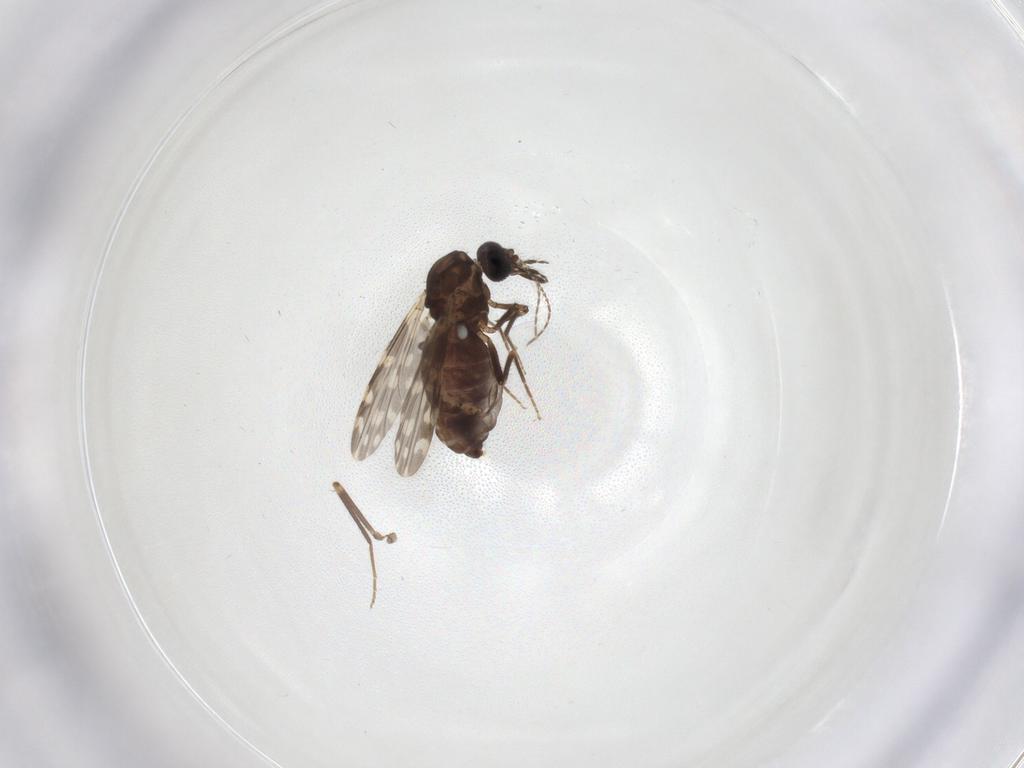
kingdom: Animalia
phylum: Arthropoda
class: Insecta
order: Diptera
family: Ceratopogonidae
